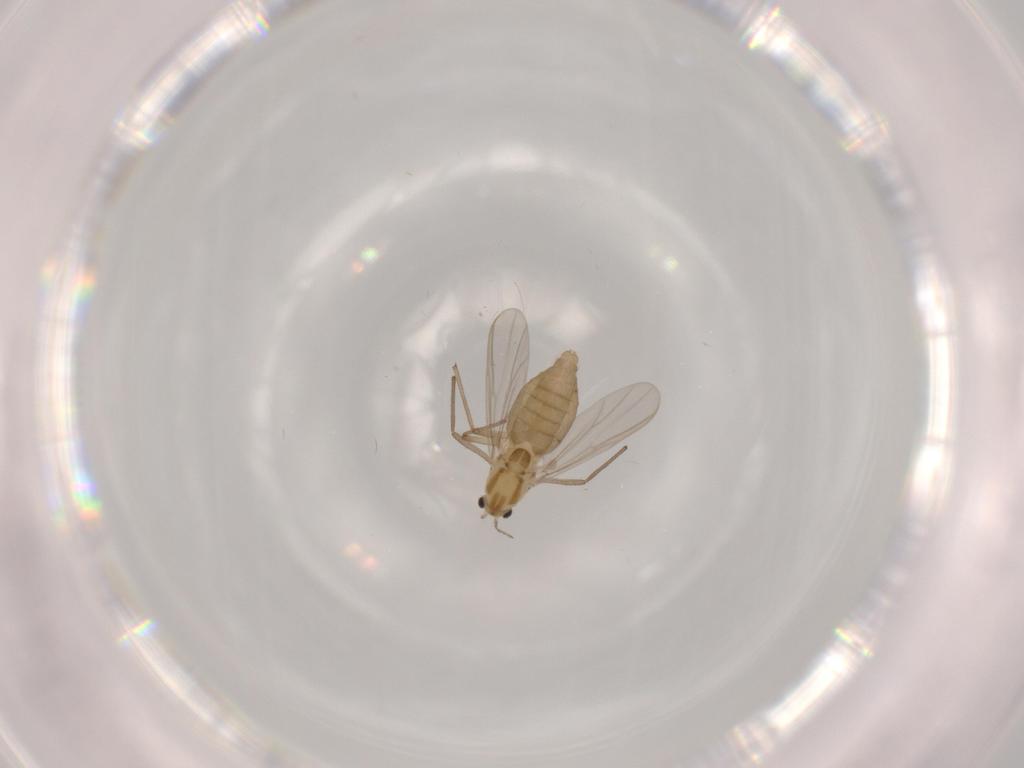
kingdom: Animalia
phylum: Arthropoda
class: Insecta
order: Diptera
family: Chironomidae
